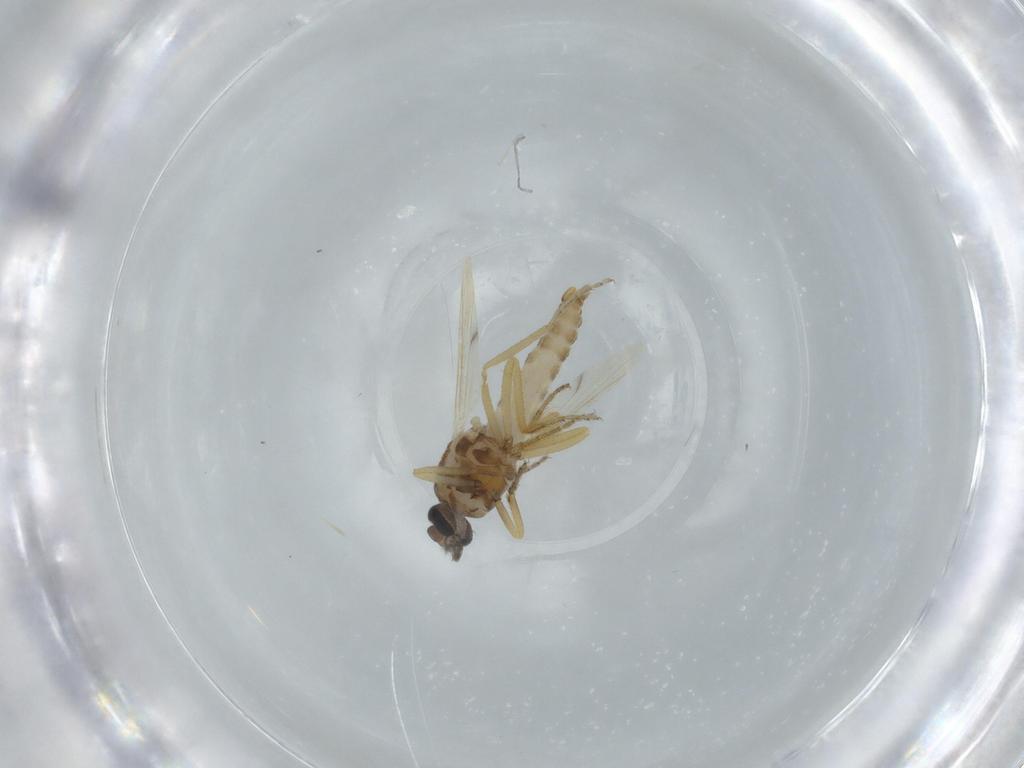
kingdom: Animalia
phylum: Arthropoda
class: Insecta
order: Diptera
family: Ceratopogonidae
